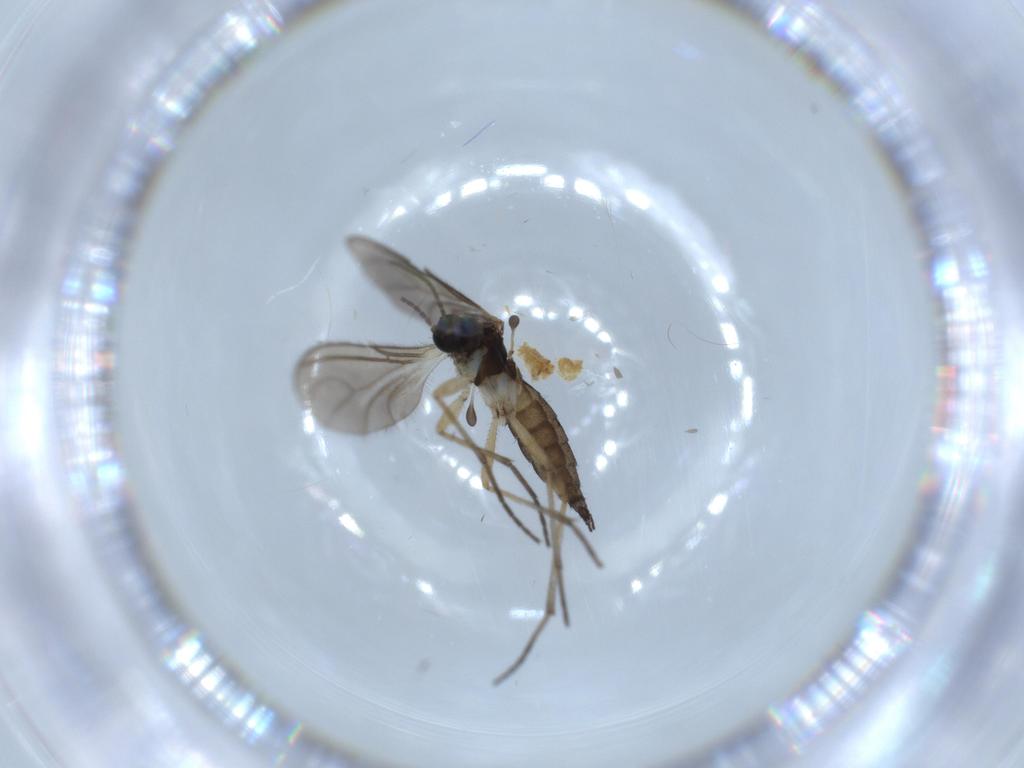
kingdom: Animalia
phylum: Arthropoda
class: Insecta
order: Diptera
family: Sciaridae
